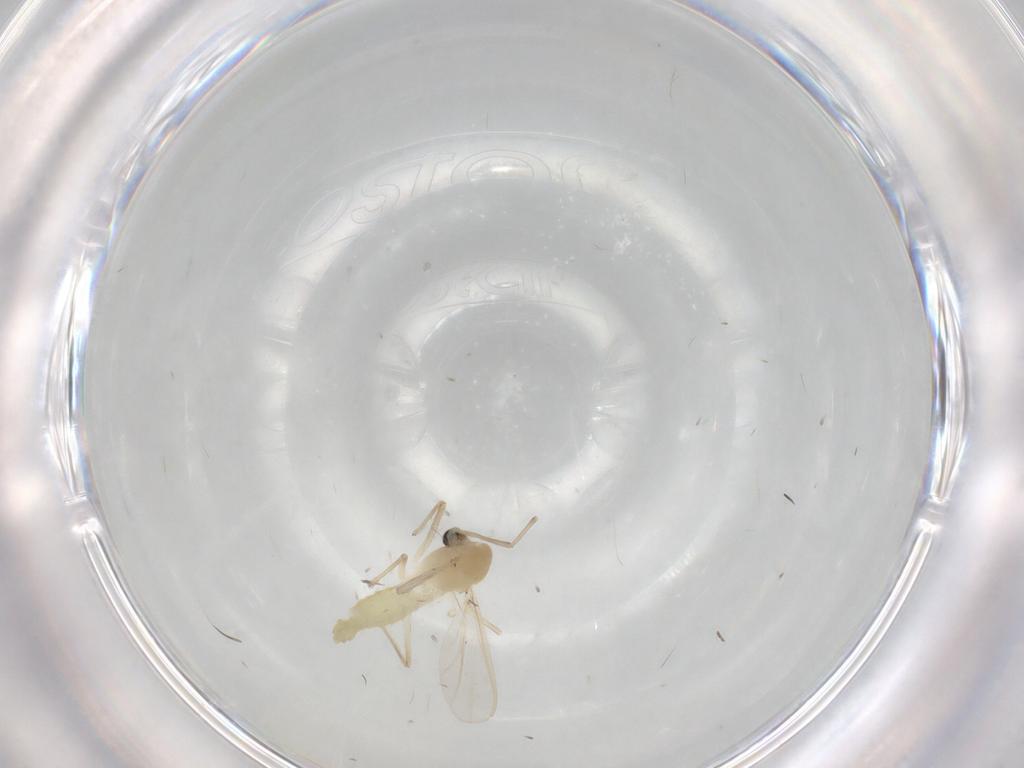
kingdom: Animalia
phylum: Arthropoda
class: Insecta
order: Diptera
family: Chironomidae
